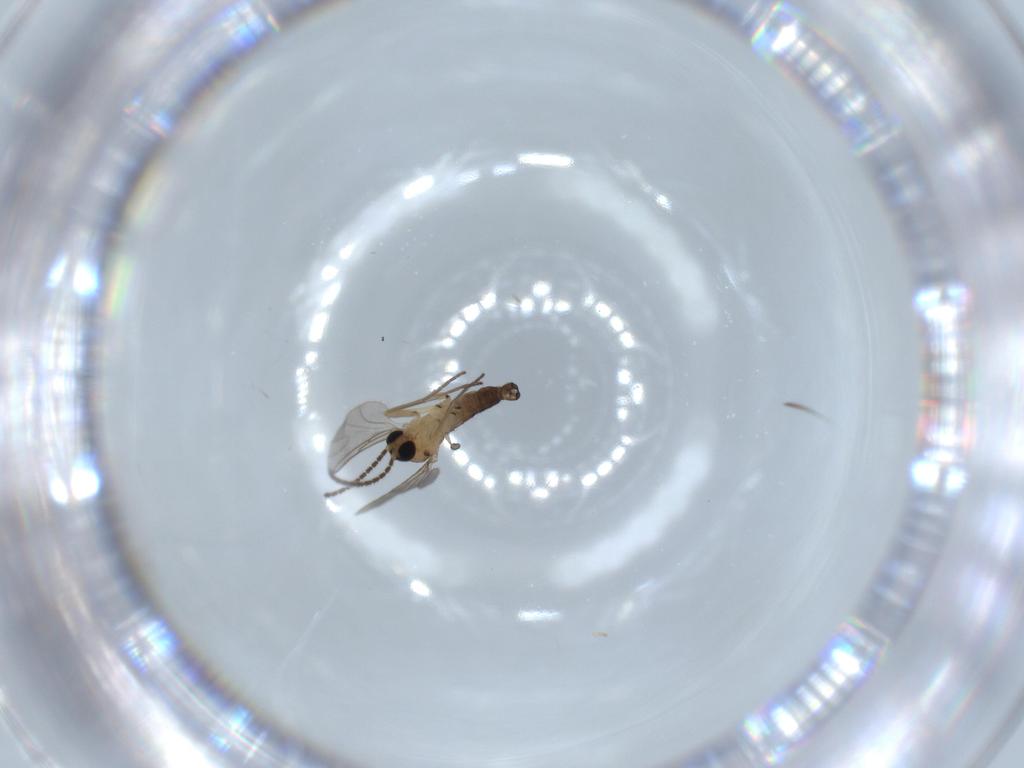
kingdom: Animalia
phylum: Arthropoda
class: Insecta
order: Diptera
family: Sciaridae
